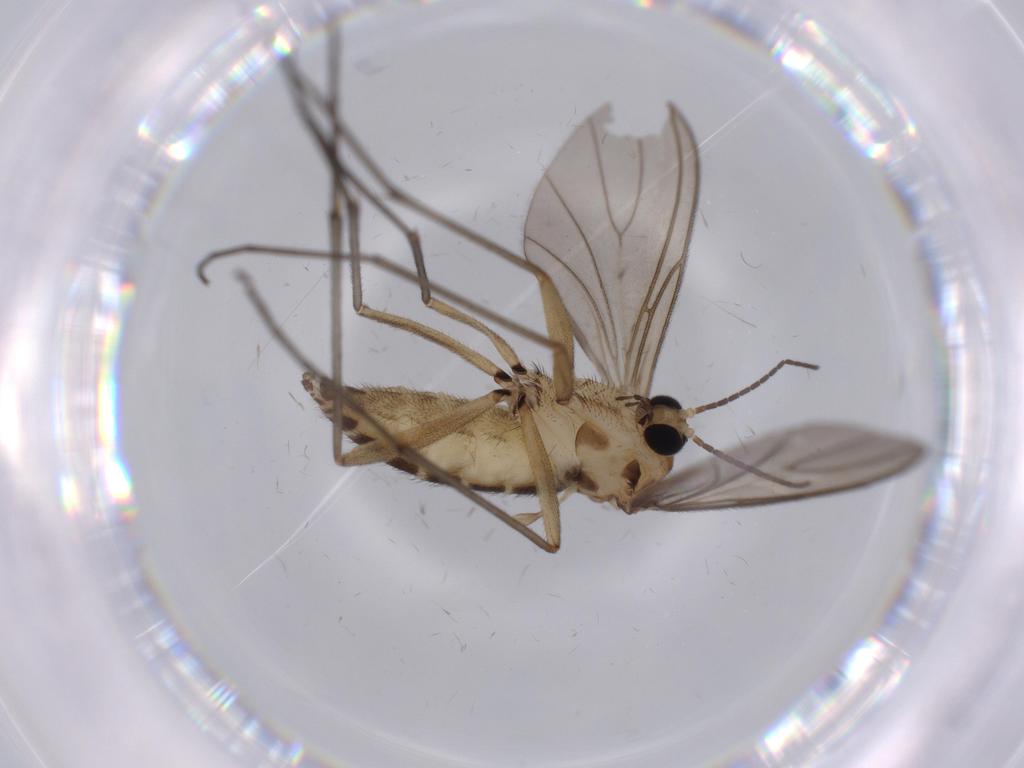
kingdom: Animalia
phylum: Arthropoda
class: Insecta
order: Diptera
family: Sciaridae
